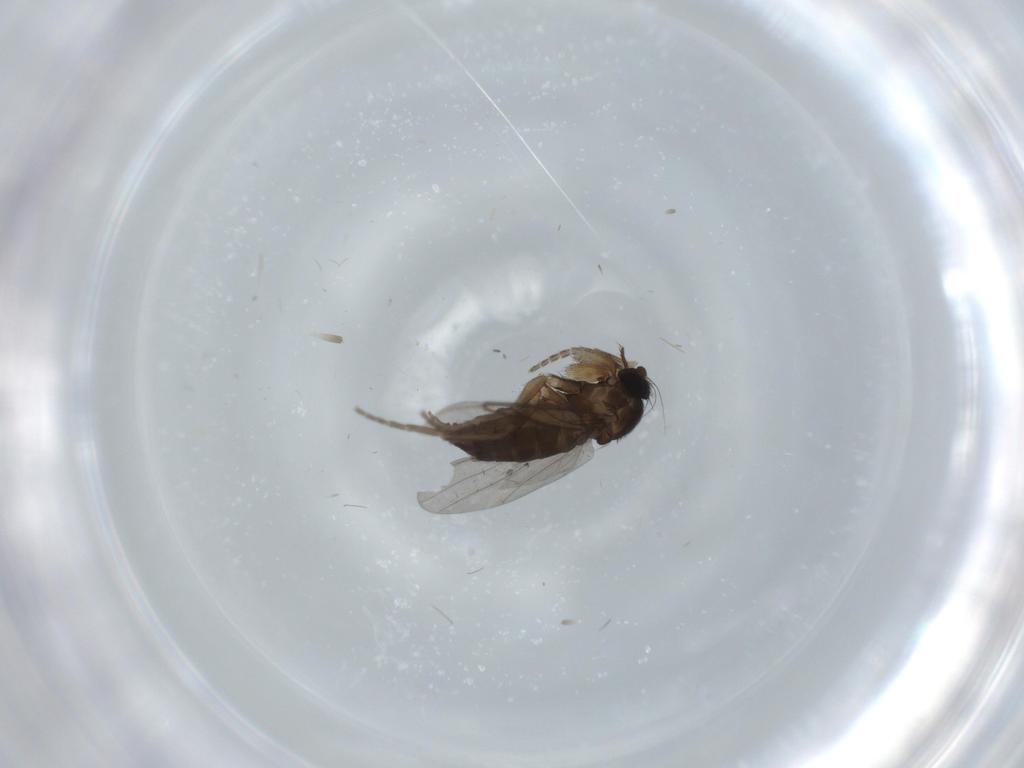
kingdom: Animalia
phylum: Arthropoda
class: Insecta
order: Diptera
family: Phoridae
